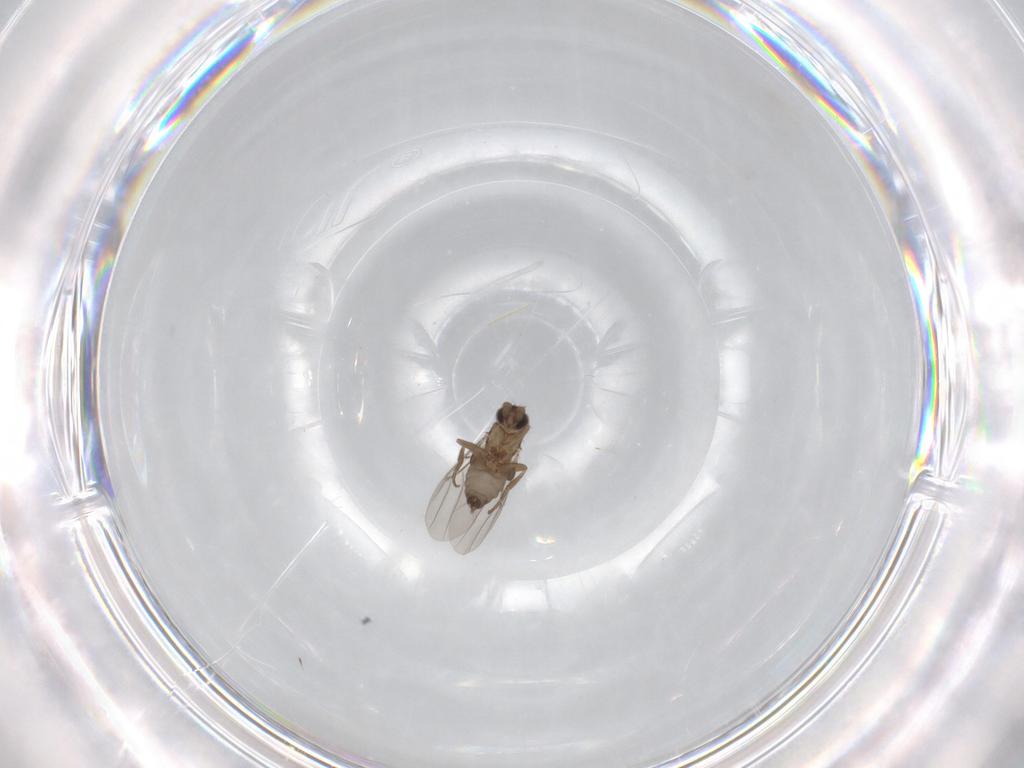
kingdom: Animalia
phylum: Arthropoda
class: Insecta
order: Diptera
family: Phoridae
